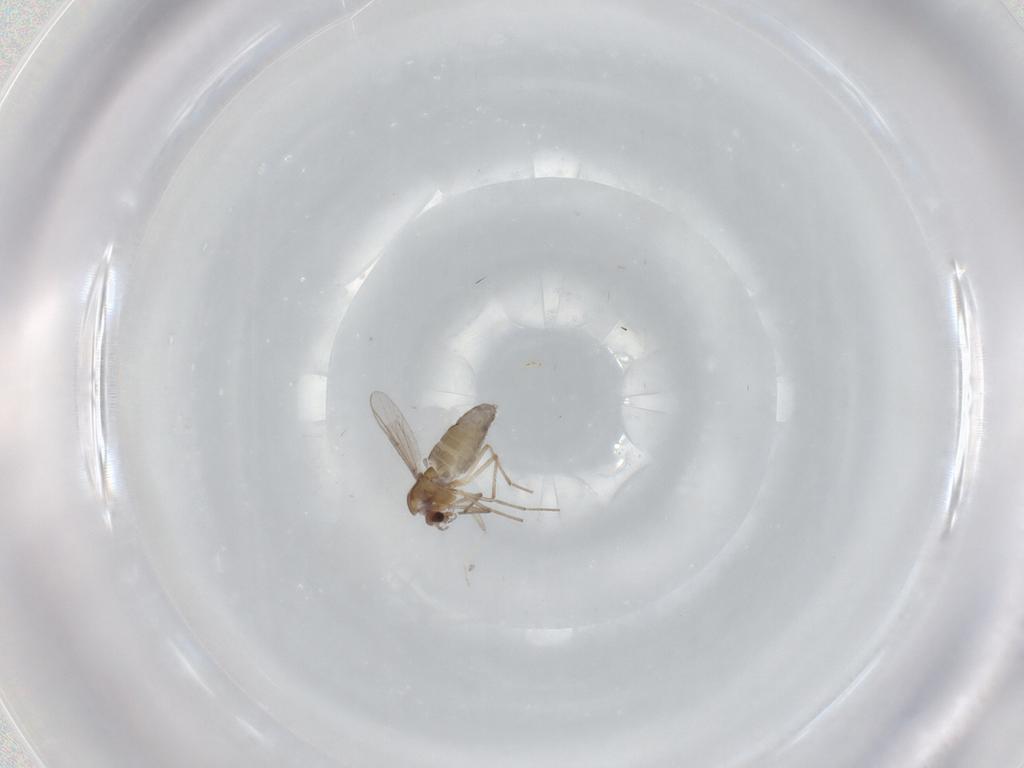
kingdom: Animalia
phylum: Arthropoda
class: Insecta
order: Diptera
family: Chironomidae
